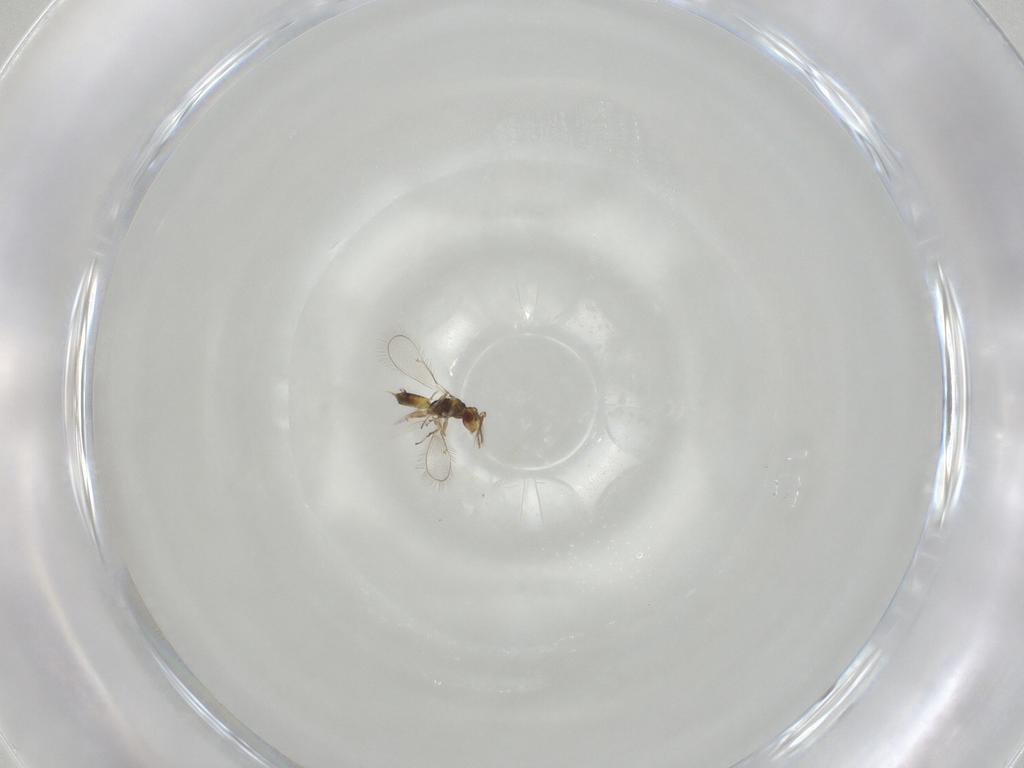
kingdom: Animalia
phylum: Arthropoda
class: Insecta
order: Hymenoptera
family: Eulophidae
